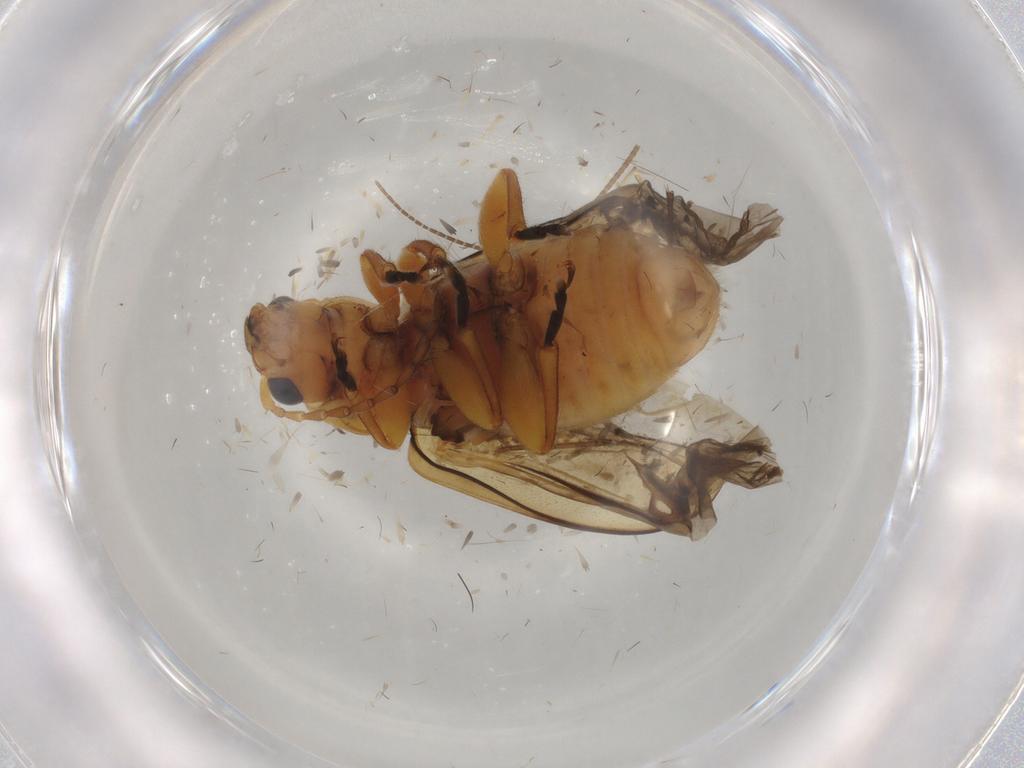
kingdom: Animalia
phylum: Arthropoda
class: Insecta
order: Coleoptera
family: Chrysomelidae
